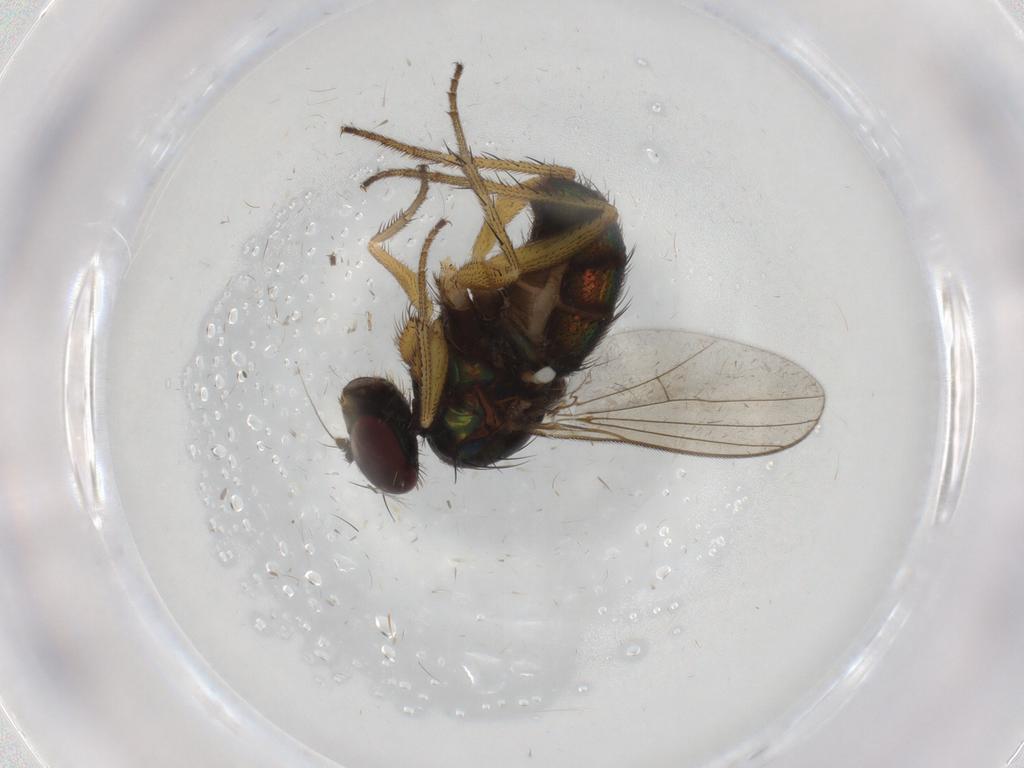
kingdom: Animalia
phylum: Arthropoda
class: Insecta
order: Diptera
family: Dolichopodidae
